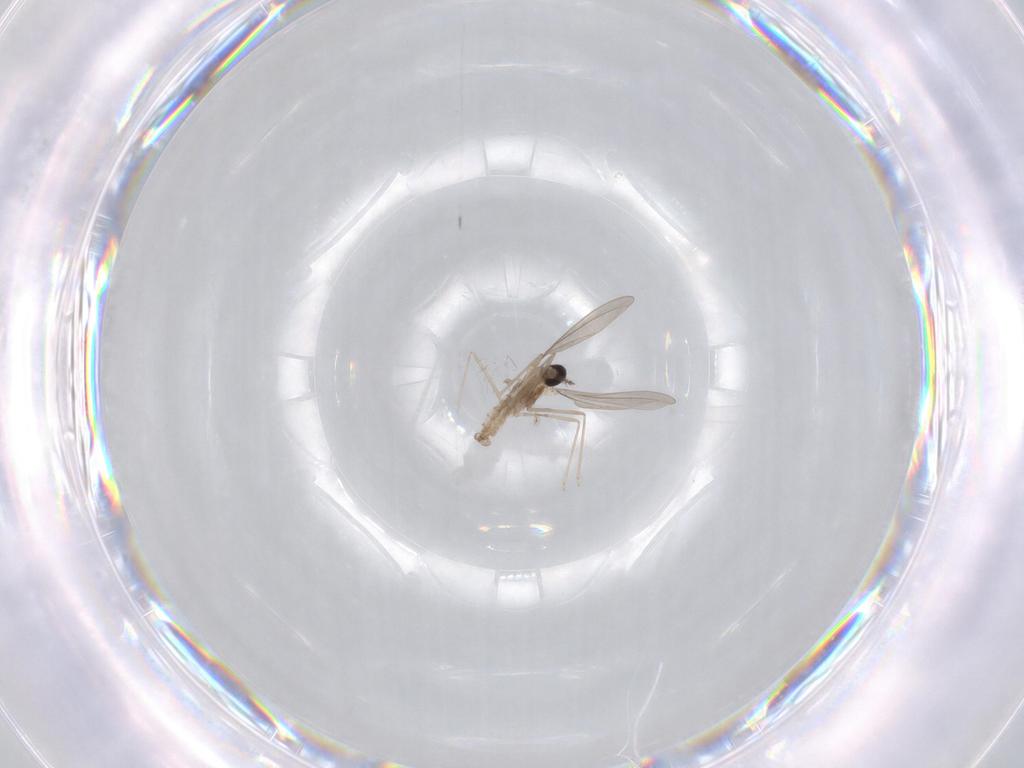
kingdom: Animalia
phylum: Arthropoda
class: Insecta
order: Diptera
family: Cecidomyiidae
